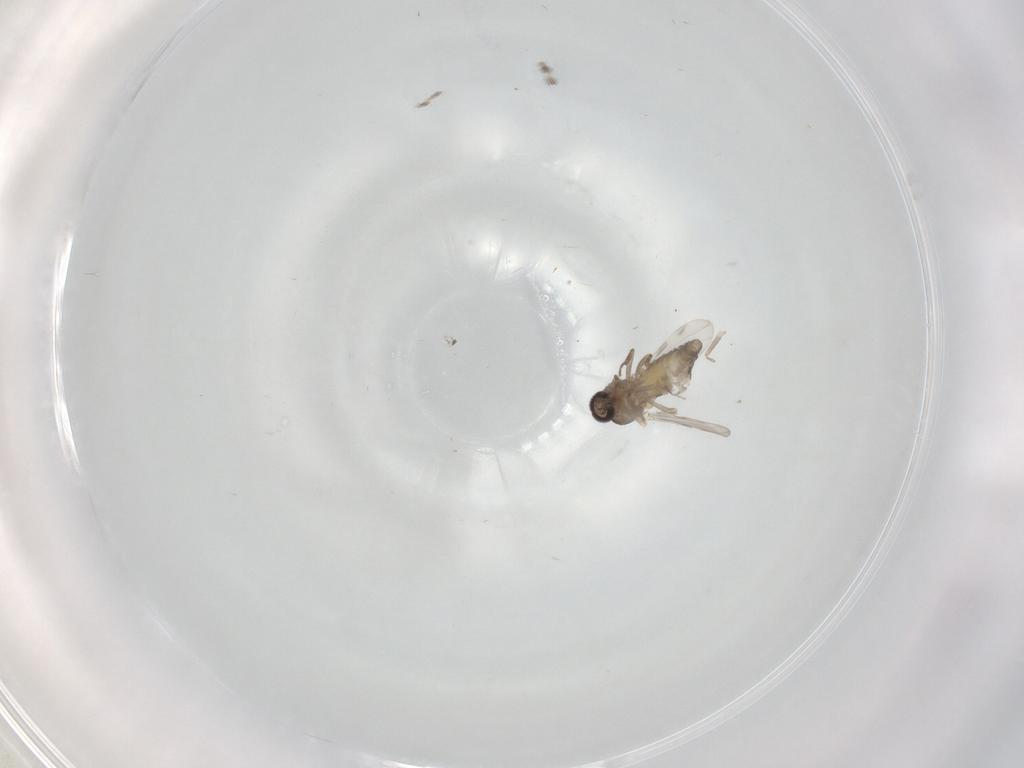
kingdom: Animalia
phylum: Arthropoda
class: Insecta
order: Diptera
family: Ceratopogonidae
